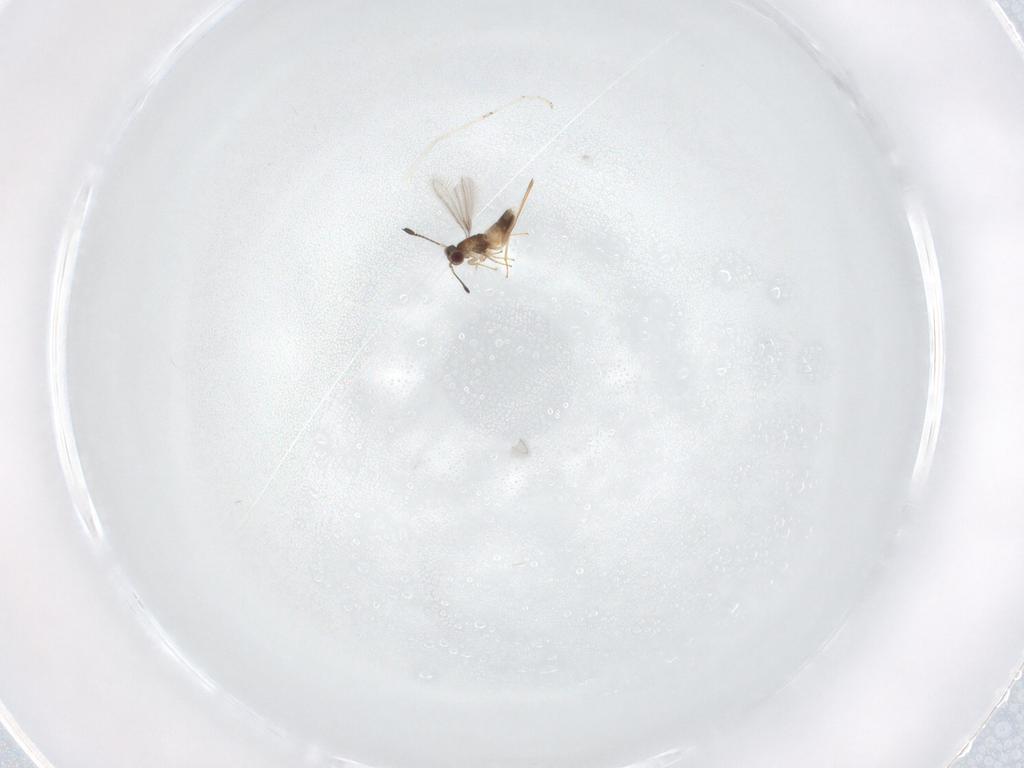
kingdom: Animalia
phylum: Arthropoda
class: Insecta
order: Hymenoptera
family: Mymaridae
